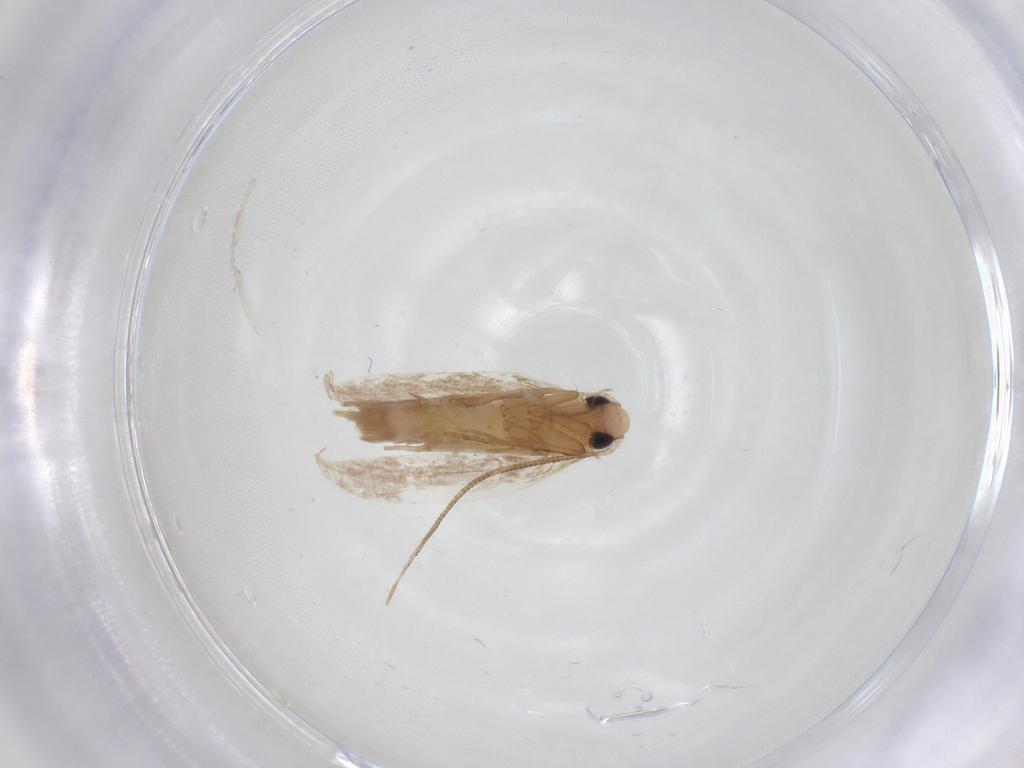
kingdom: Animalia
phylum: Arthropoda
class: Insecta
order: Lepidoptera
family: Tineidae
